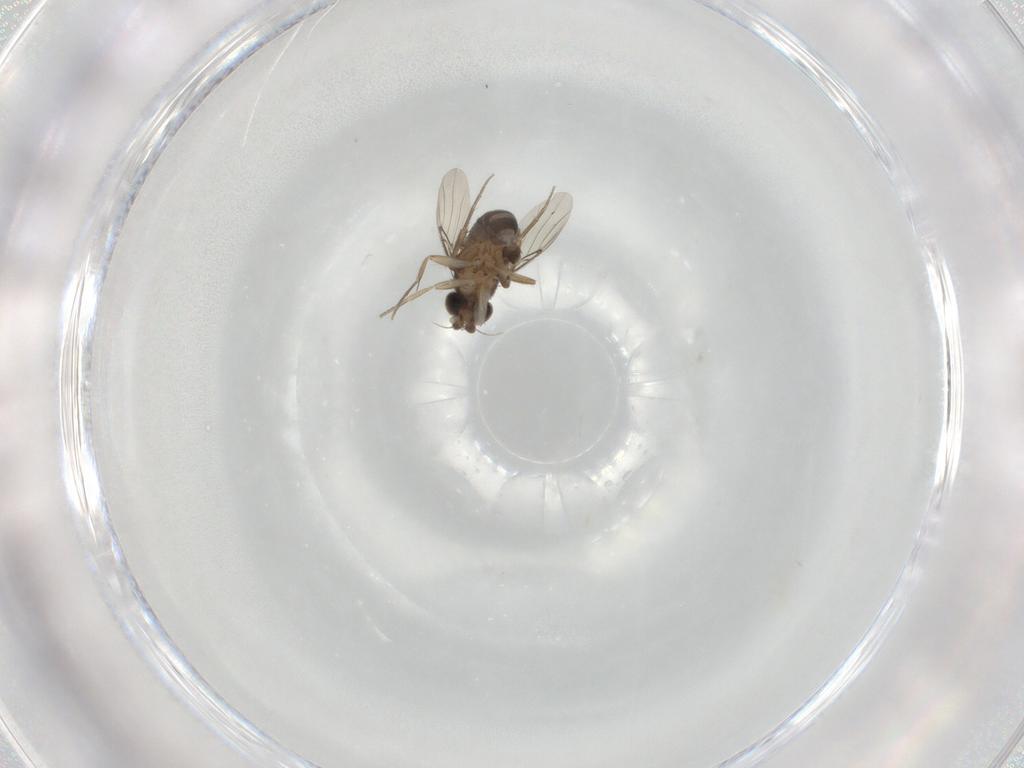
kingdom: Animalia
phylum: Arthropoda
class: Insecta
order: Diptera
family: Phoridae
